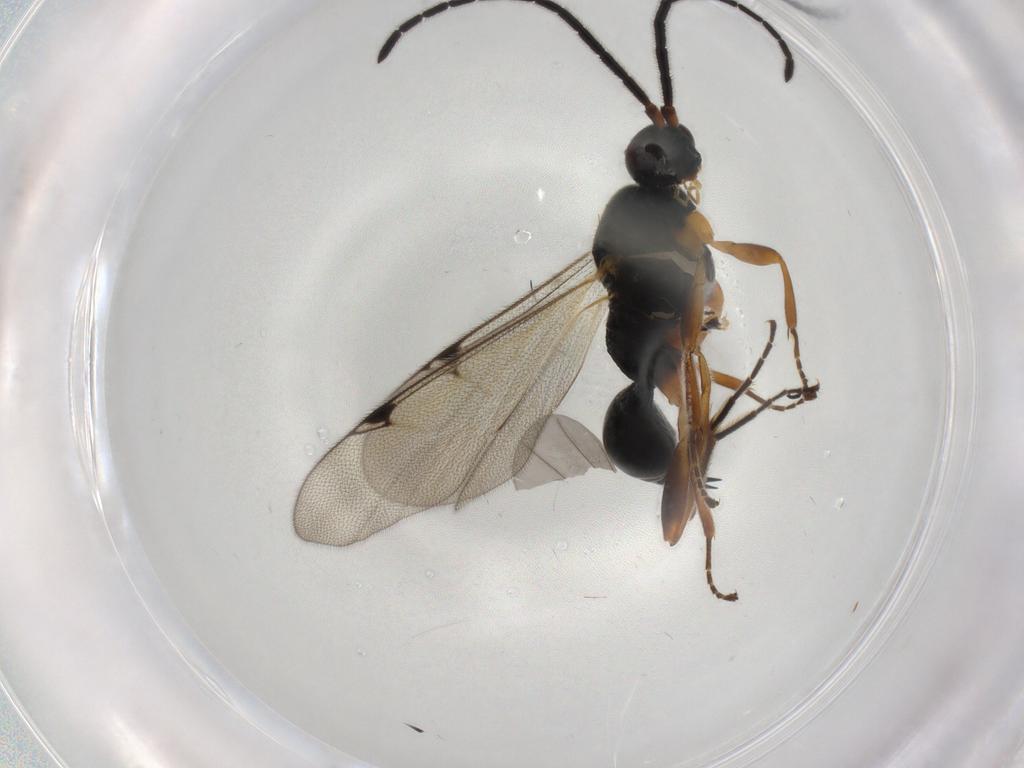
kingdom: Animalia
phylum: Arthropoda
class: Insecta
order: Hymenoptera
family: Proctotrupidae
